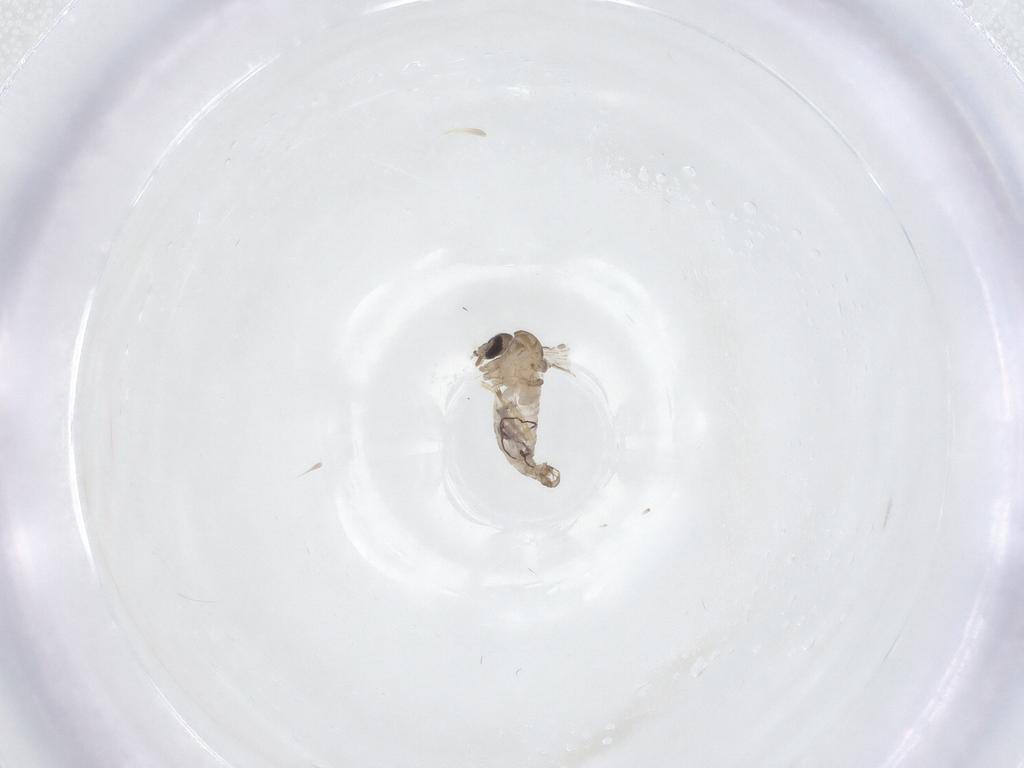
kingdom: Animalia
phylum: Arthropoda
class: Insecta
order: Diptera
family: Psychodidae
